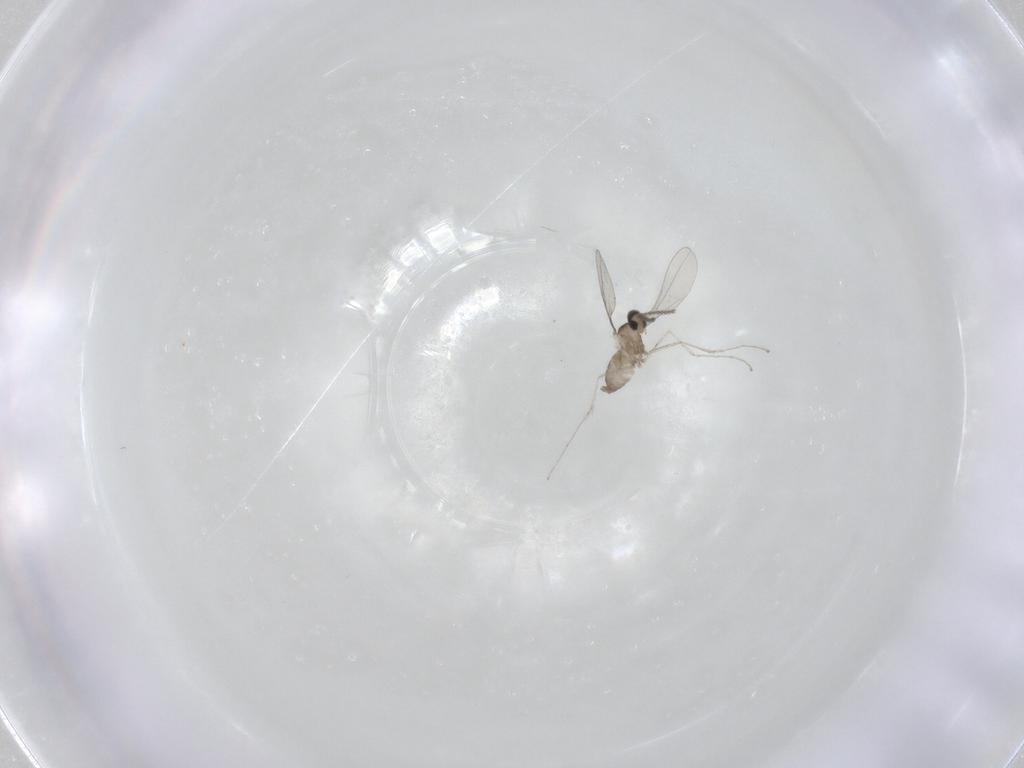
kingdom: Animalia
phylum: Arthropoda
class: Insecta
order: Diptera
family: Cecidomyiidae
